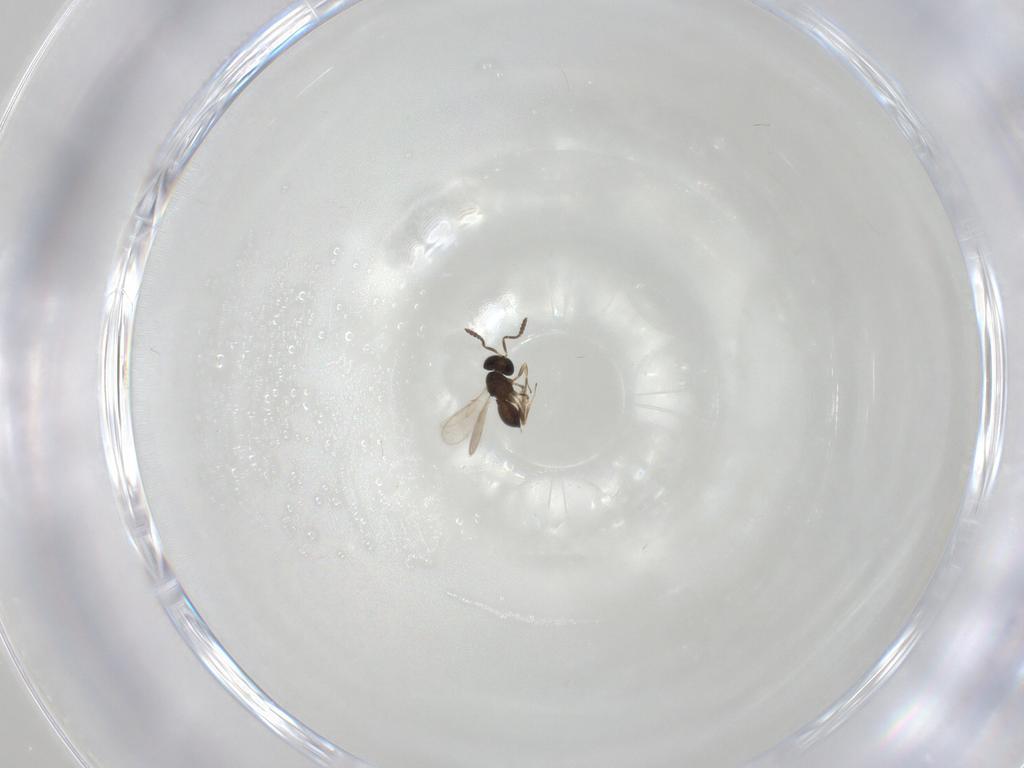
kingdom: Animalia
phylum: Arthropoda
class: Insecta
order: Hymenoptera
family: Scelionidae
